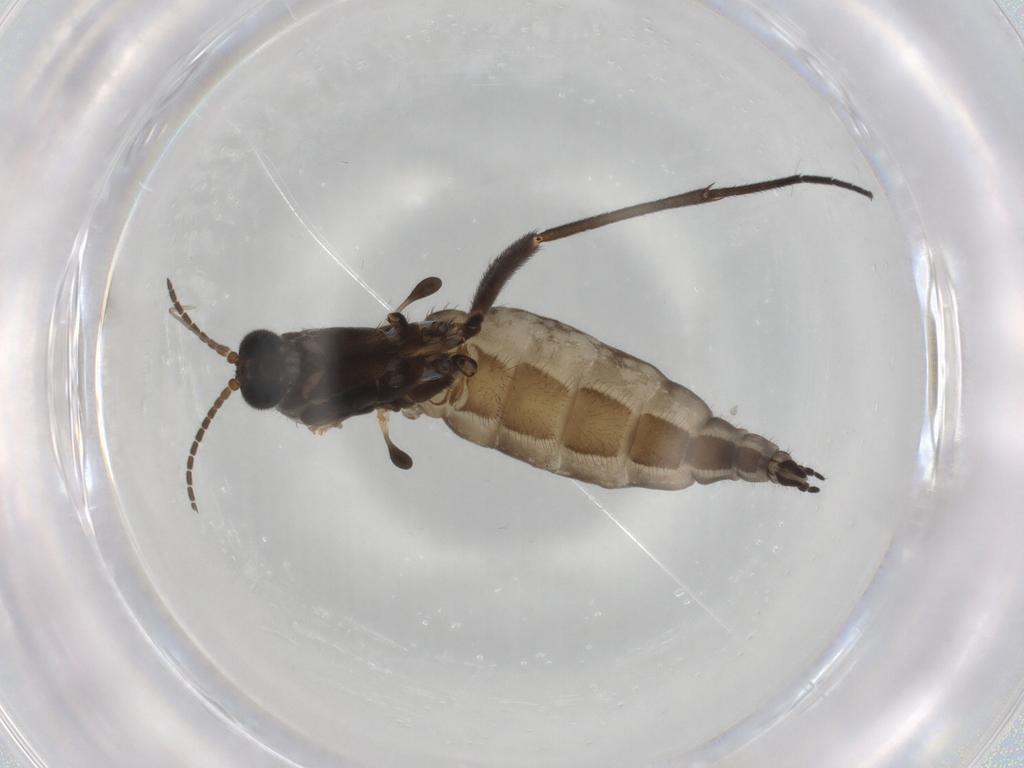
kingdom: Animalia
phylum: Arthropoda
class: Insecta
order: Diptera
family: Sciaridae
